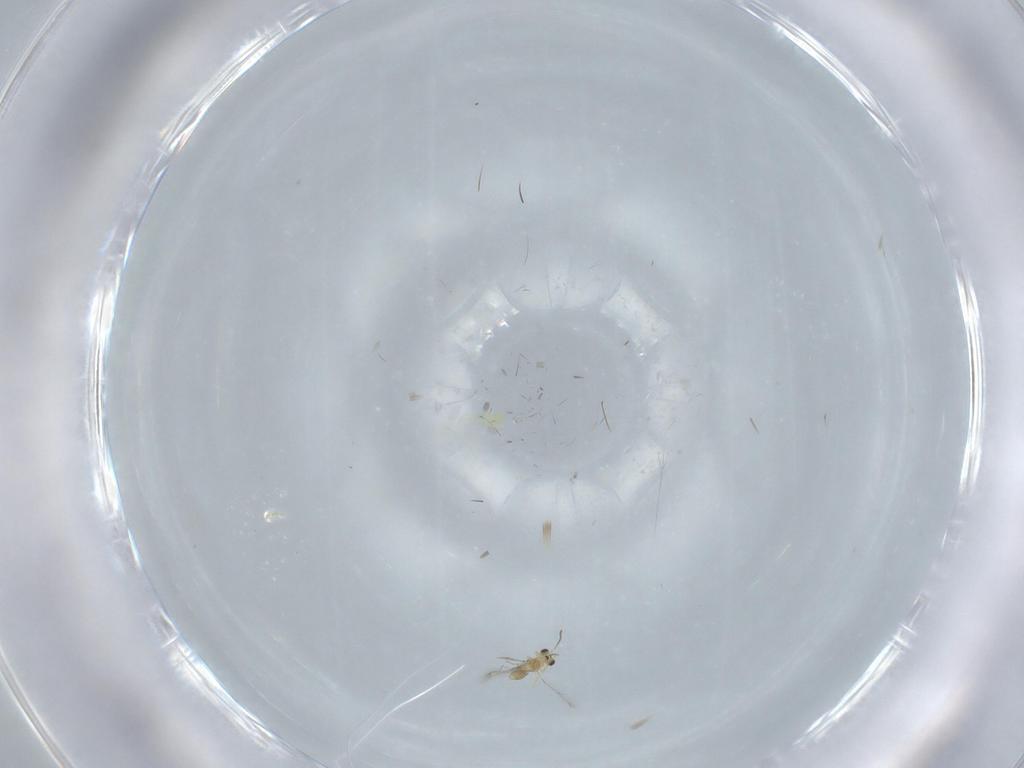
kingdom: Animalia
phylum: Arthropoda
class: Insecta
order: Hymenoptera
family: Mymaridae
